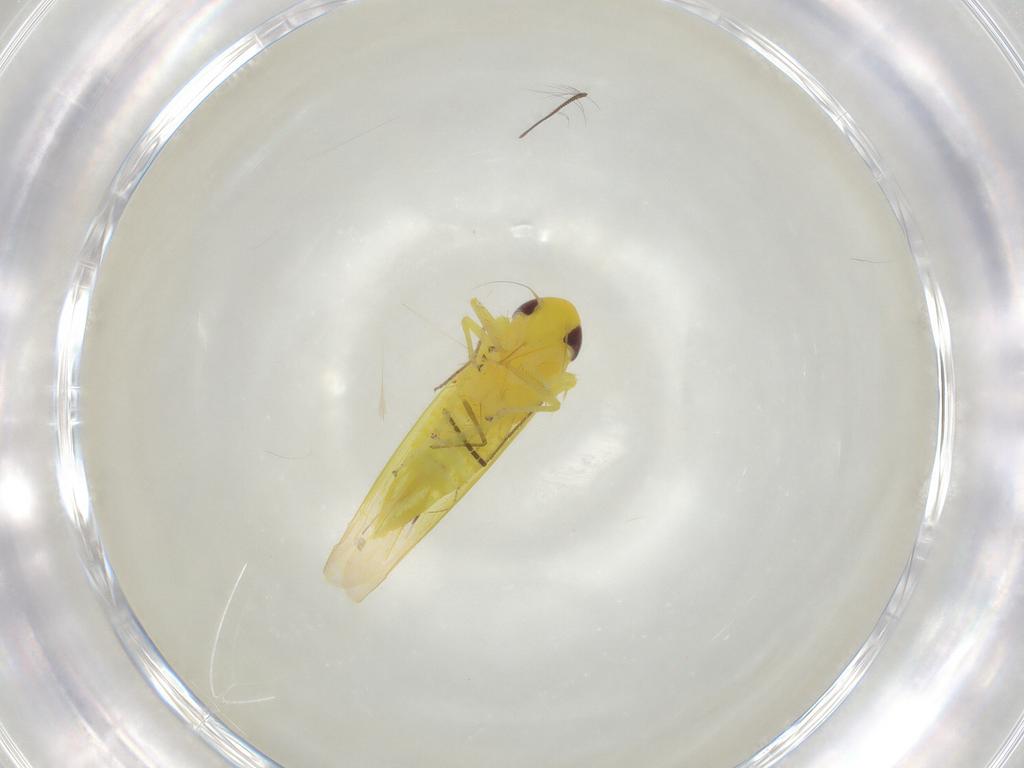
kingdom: Animalia
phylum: Arthropoda
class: Insecta
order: Hemiptera
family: Cicadellidae
